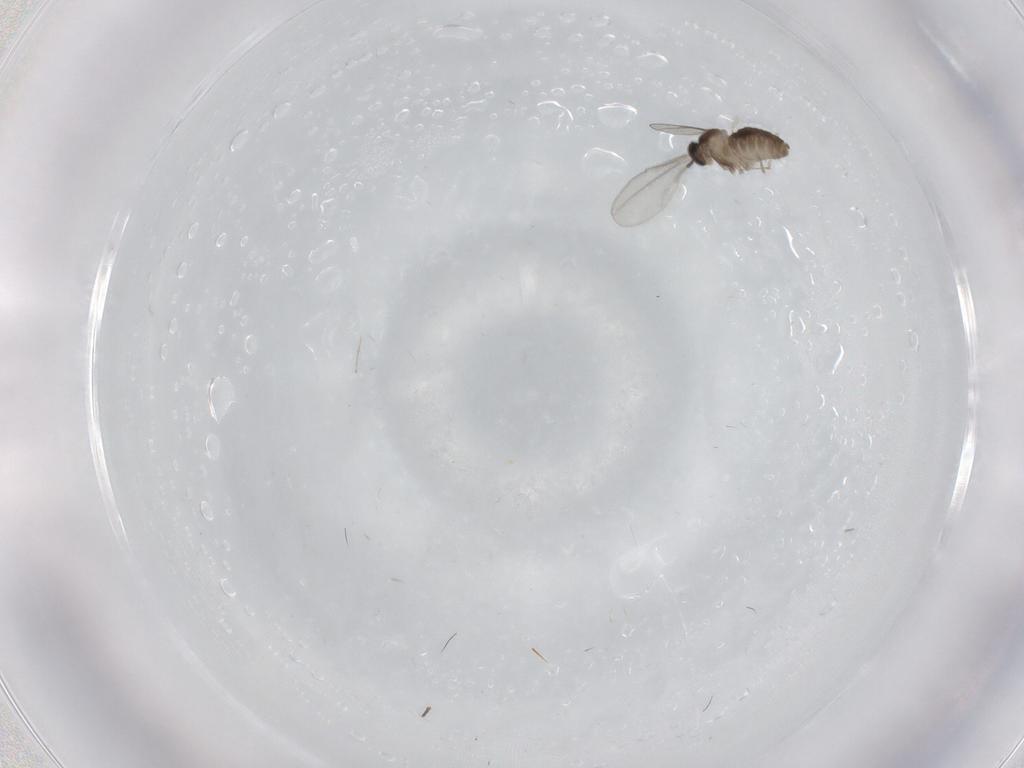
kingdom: Animalia
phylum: Arthropoda
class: Insecta
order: Diptera
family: Cecidomyiidae
